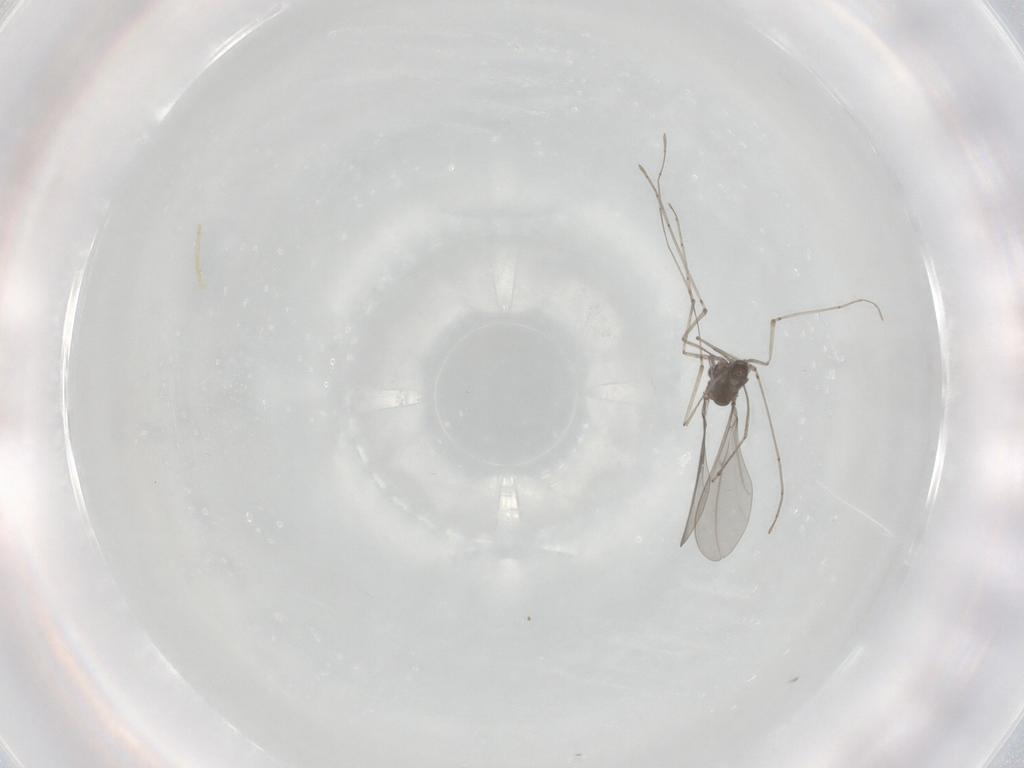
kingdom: Animalia
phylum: Arthropoda
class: Insecta
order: Diptera
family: Cecidomyiidae
